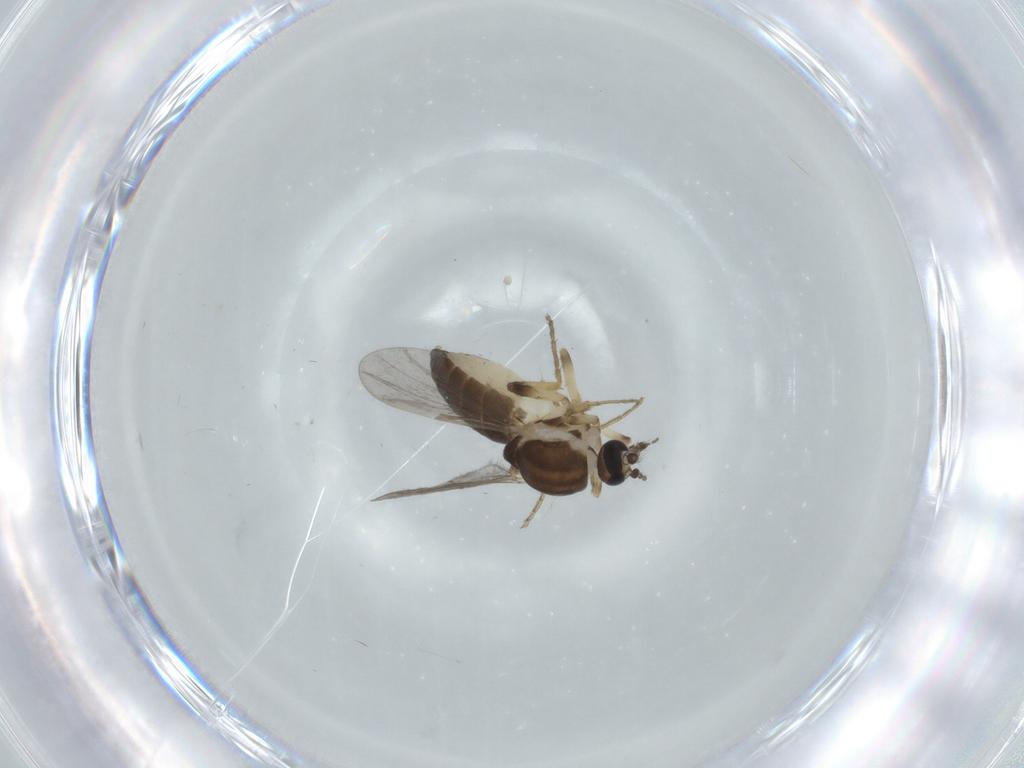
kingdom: Animalia
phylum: Arthropoda
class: Insecta
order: Diptera
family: Ceratopogonidae
